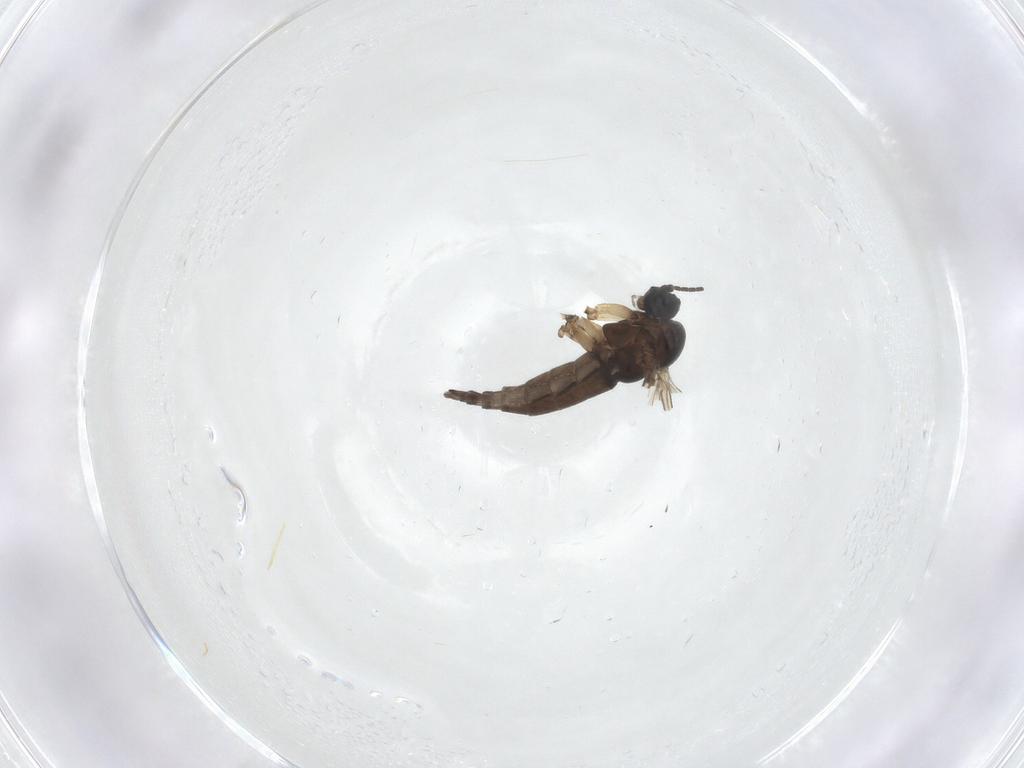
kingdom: Animalia
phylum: Arthropoda
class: Insecta
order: Diptera
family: Sciaridae
